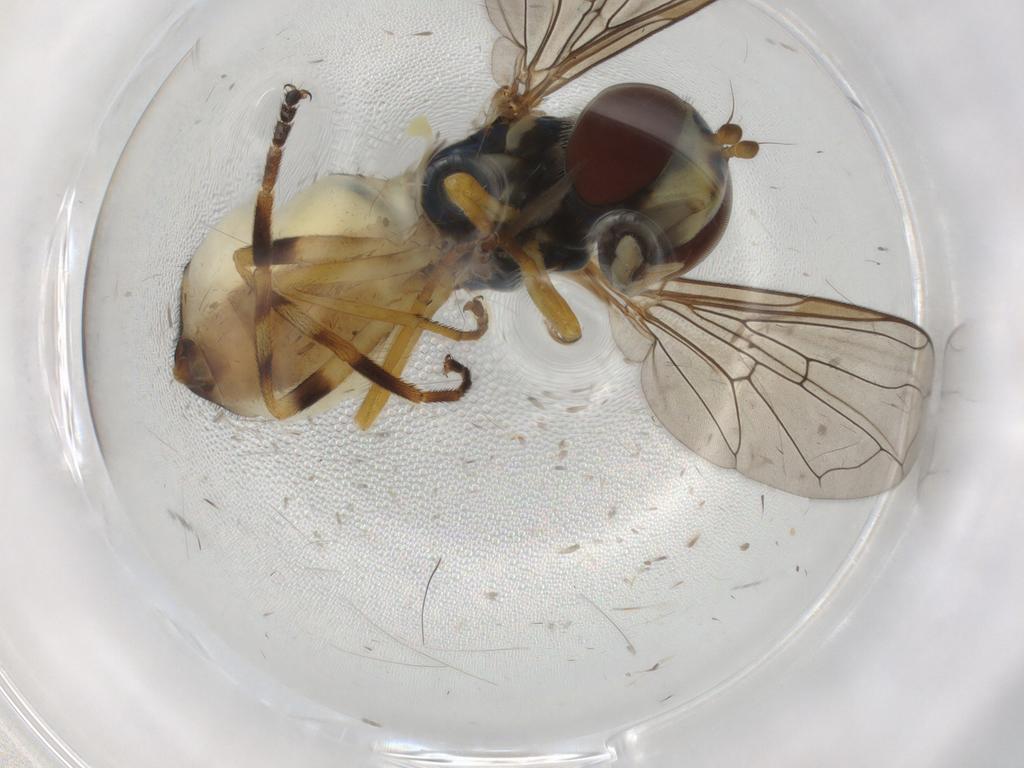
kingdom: Animalia
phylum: Arthropoda
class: Insecta
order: Diptera
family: Syrphidae
